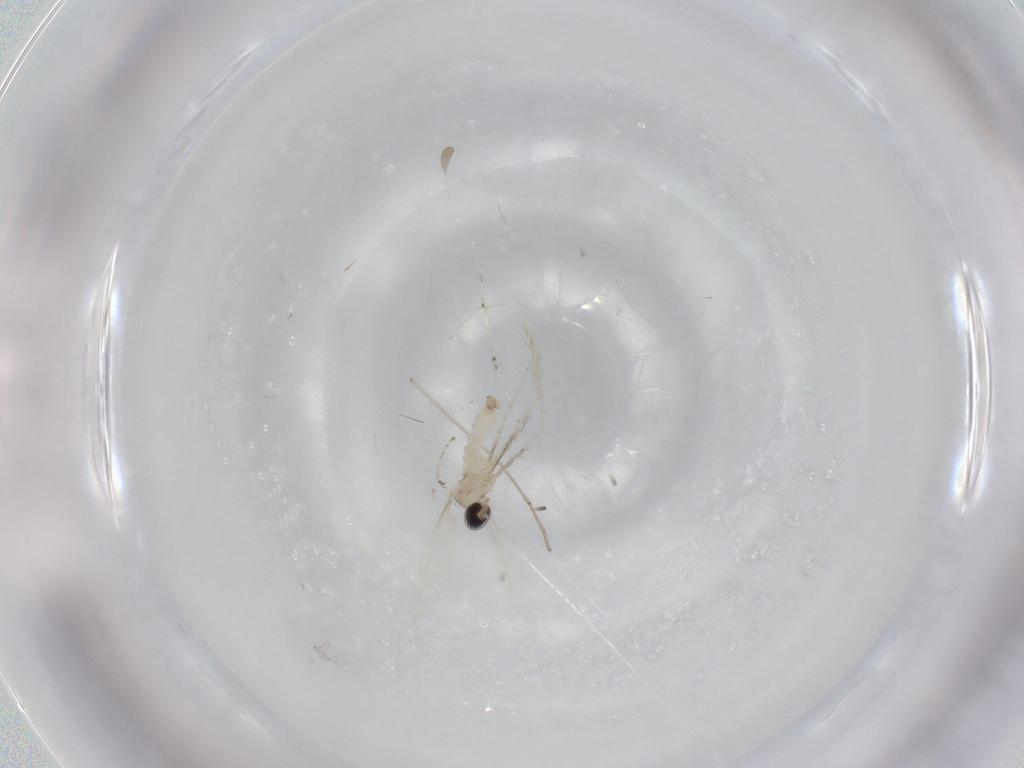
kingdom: Animalia
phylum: Arthropoda
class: Insecta
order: Diptera
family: Cecidomyiidae
